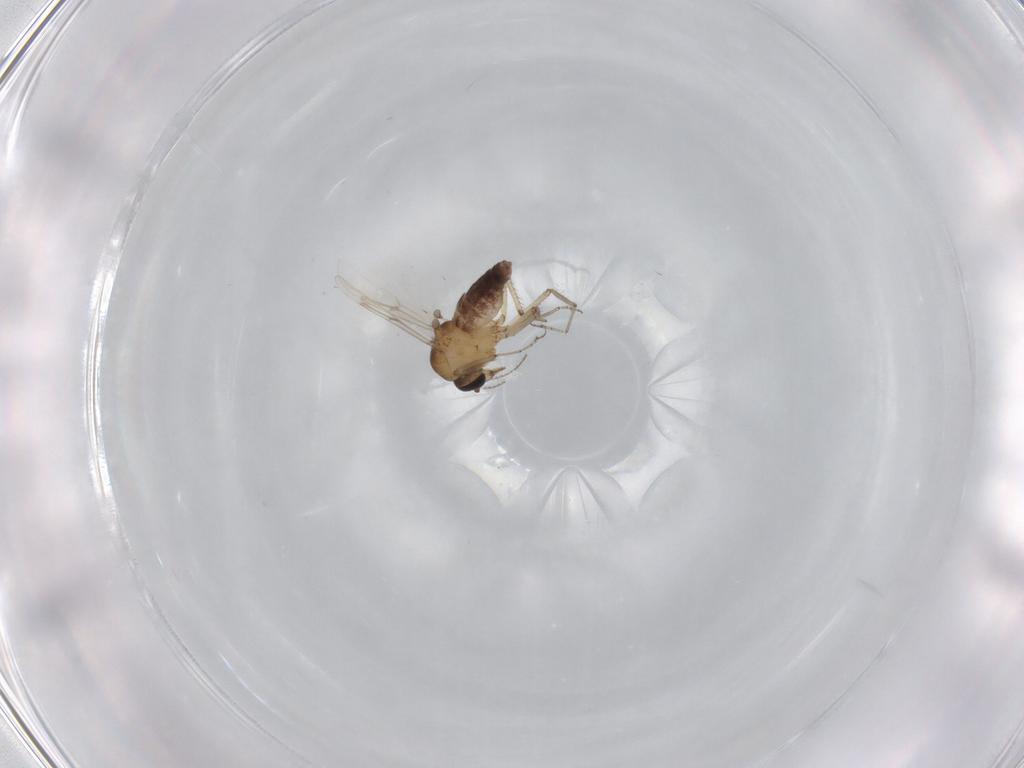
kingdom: Animalia
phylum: Arthropoda
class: Insecta
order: Diptera
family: Ceratopogonidae
